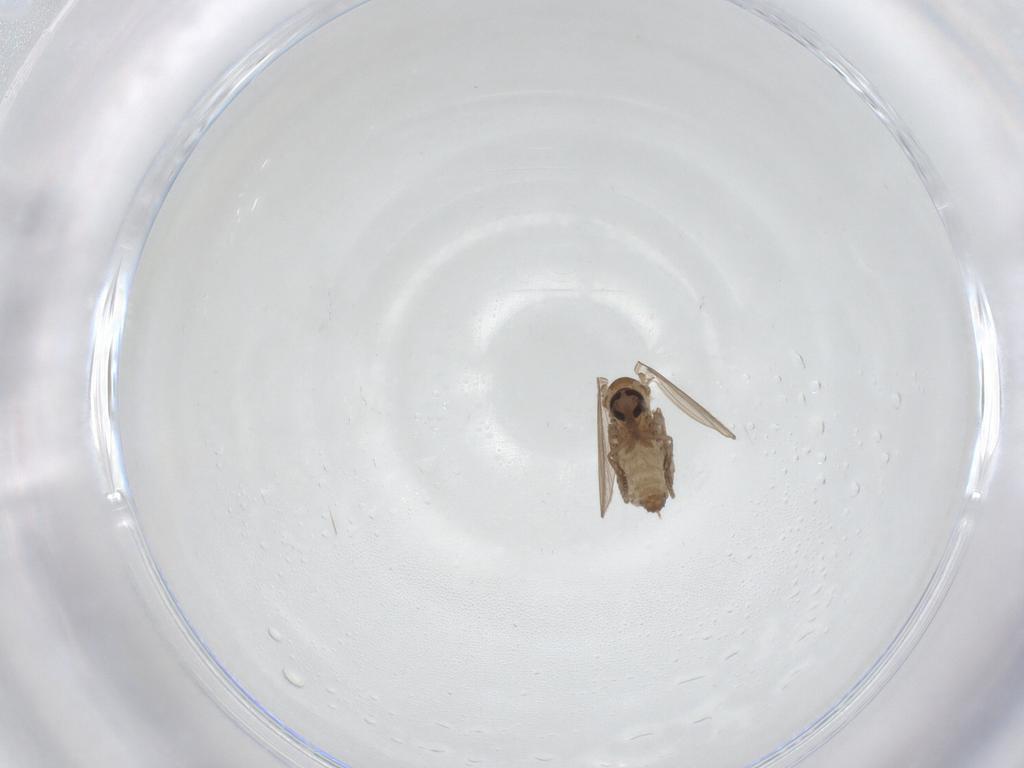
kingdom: Animalia
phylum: Arthropoda
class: Insecta
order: Diptera
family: Psychodidae
